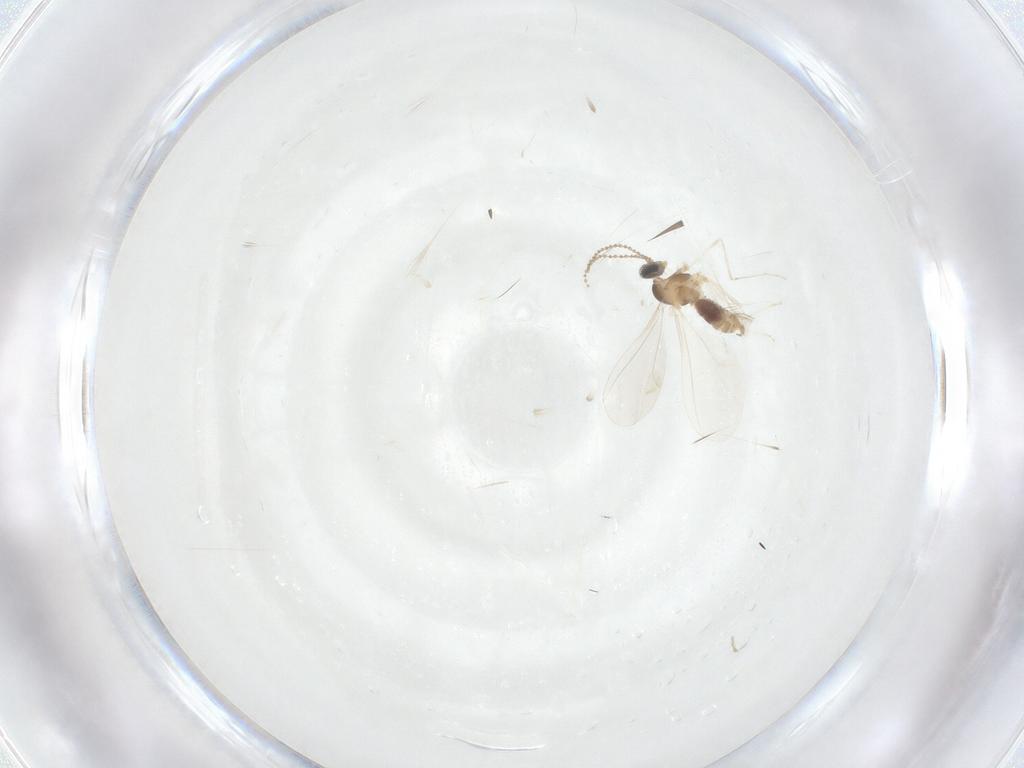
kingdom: Animalia
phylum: Arthropoda
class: Insecta
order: Diptera
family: Cecidomyiidae
